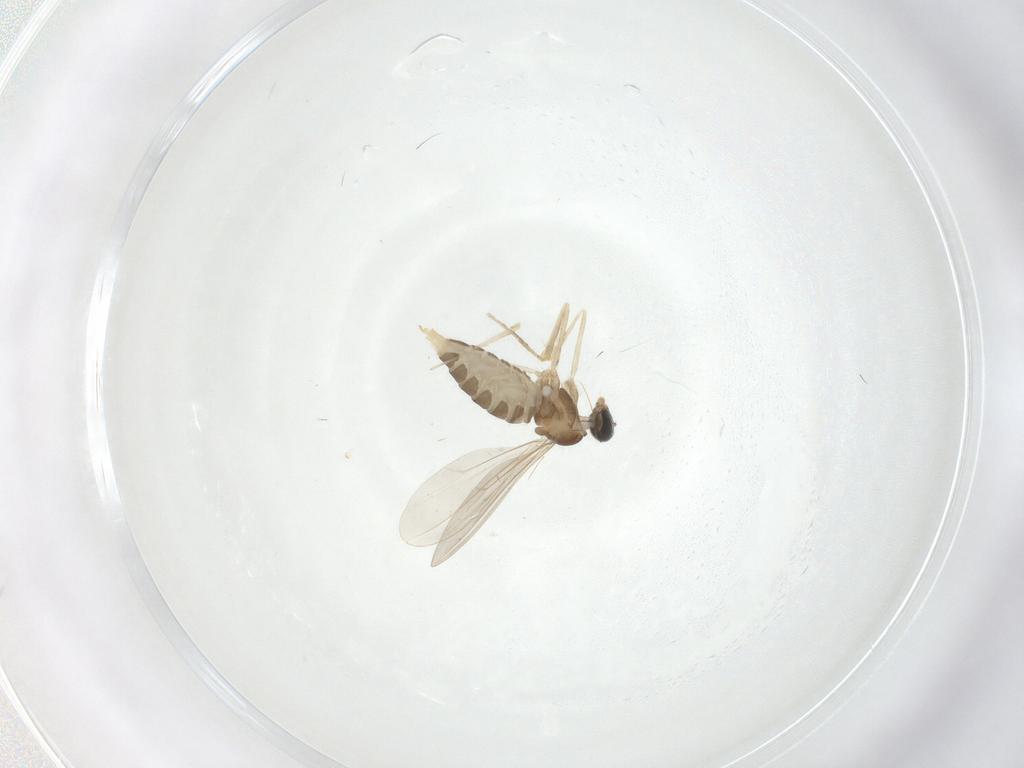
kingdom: Animalia
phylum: Arthropoda
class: Insecta
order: Diptera
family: Cecidomyiidae
